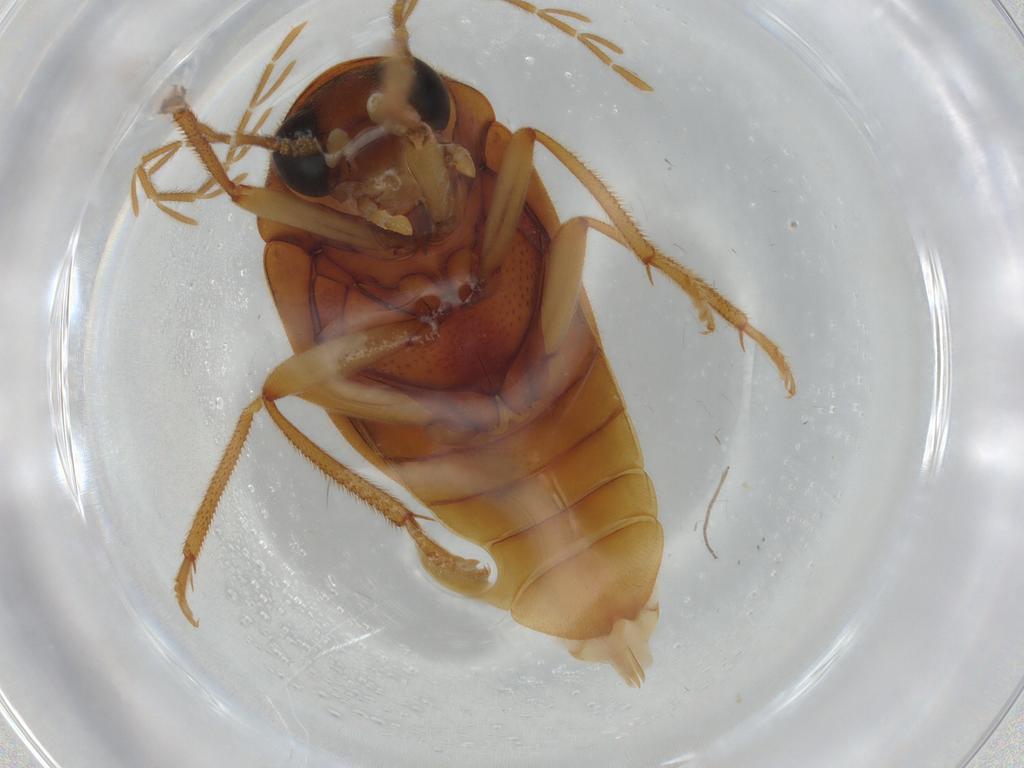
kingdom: Animalia
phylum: Arthropoda
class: Insecta
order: Coleoptera
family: Ptilodactylidae
